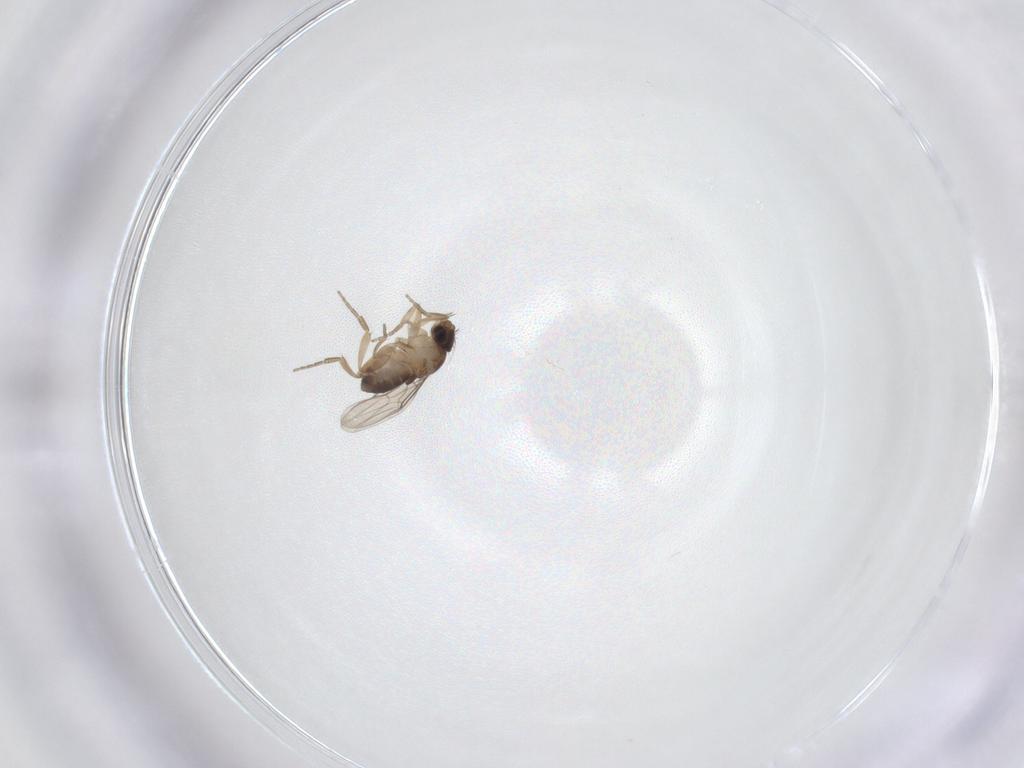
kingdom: Animalia
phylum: Arthropoda
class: Insecta
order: Diptera
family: Phoridae
